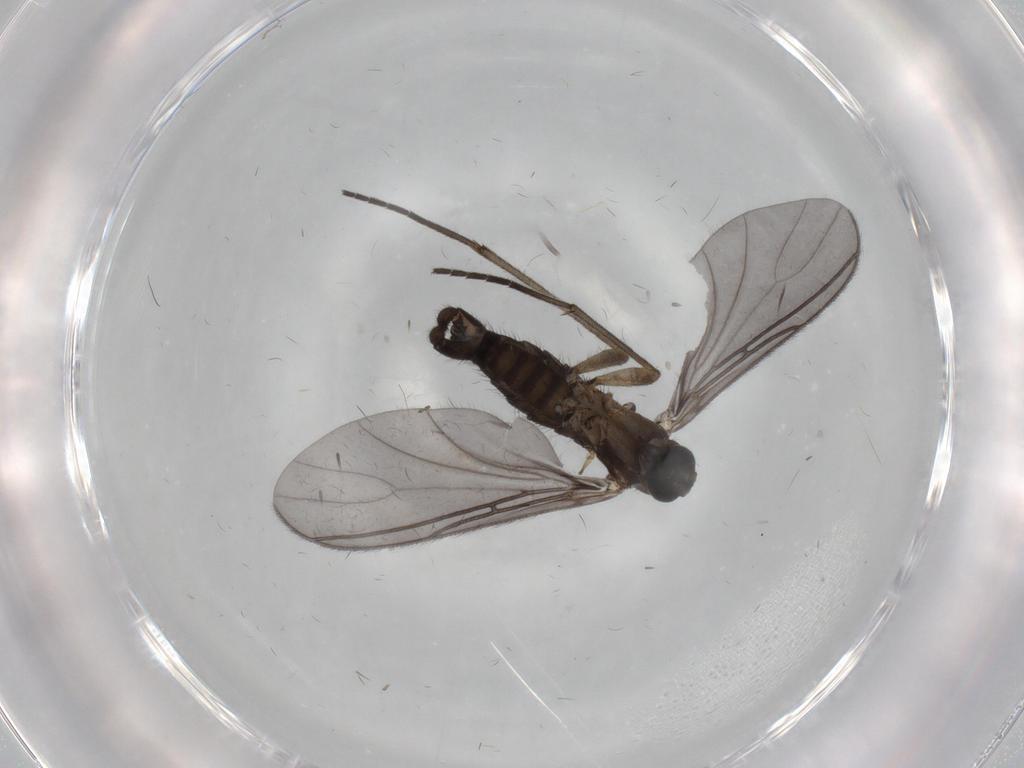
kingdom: Animalia
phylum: Arthropoda
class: Insecta
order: Diptera
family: Sciaridae
